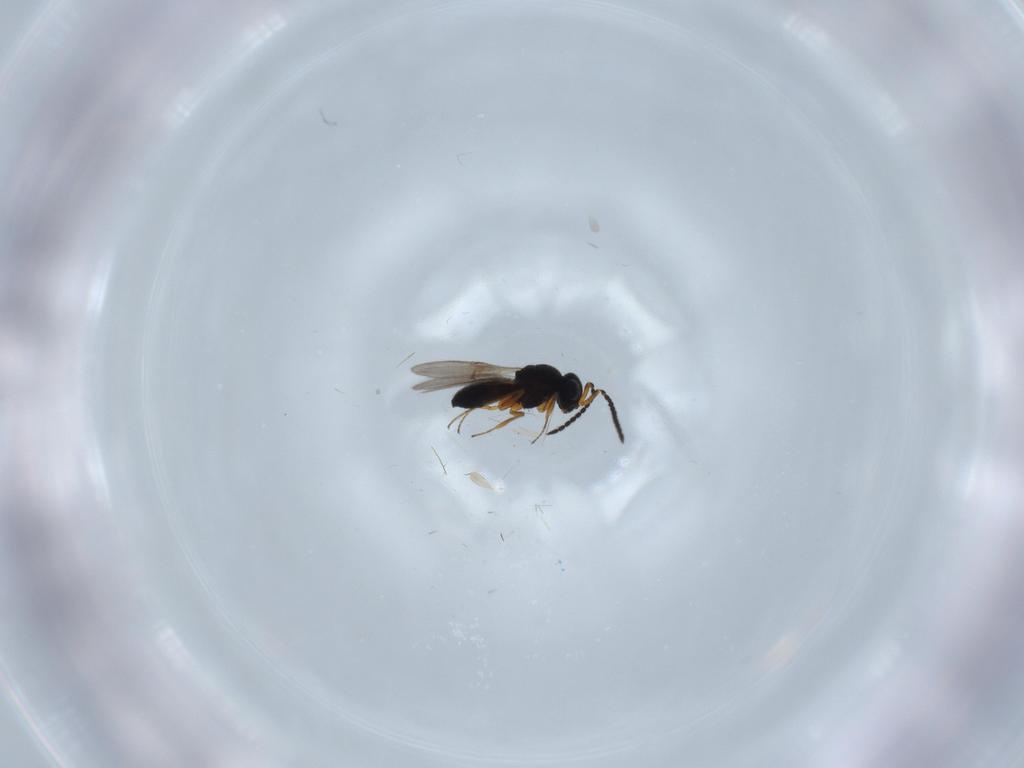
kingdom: Animalia
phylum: Arthropoda
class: Insecta
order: Hymenoptera
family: Scelionidae
